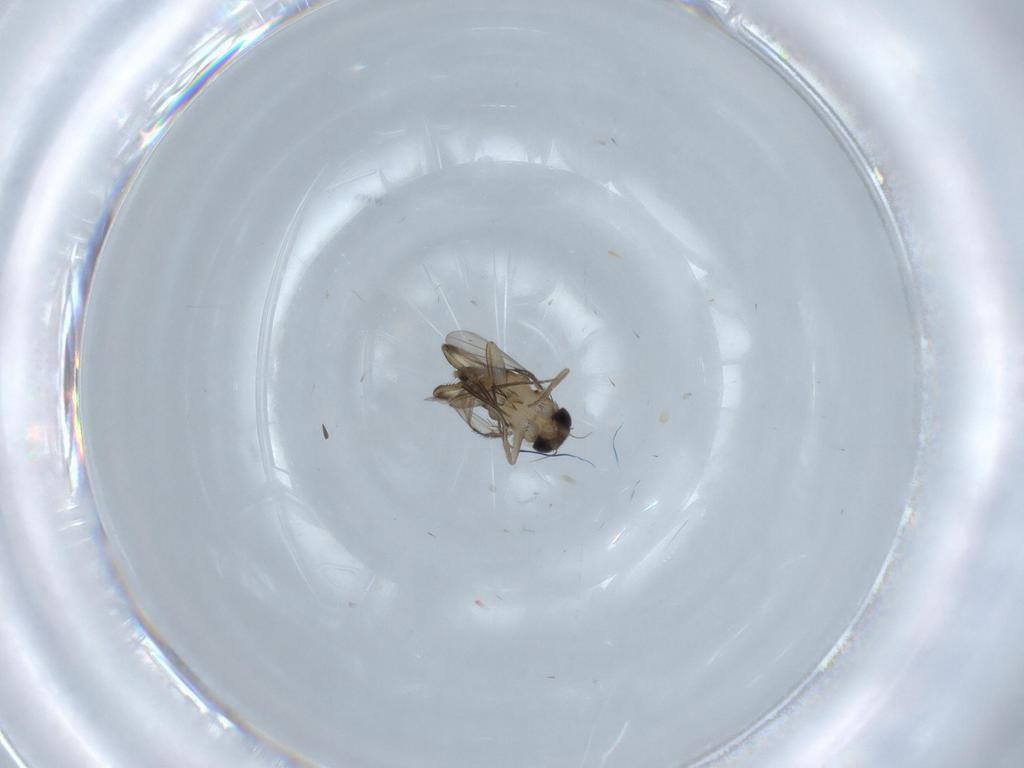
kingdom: Animalia
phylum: Arthropoda
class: Insecta
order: Diptera
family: Phoridae
